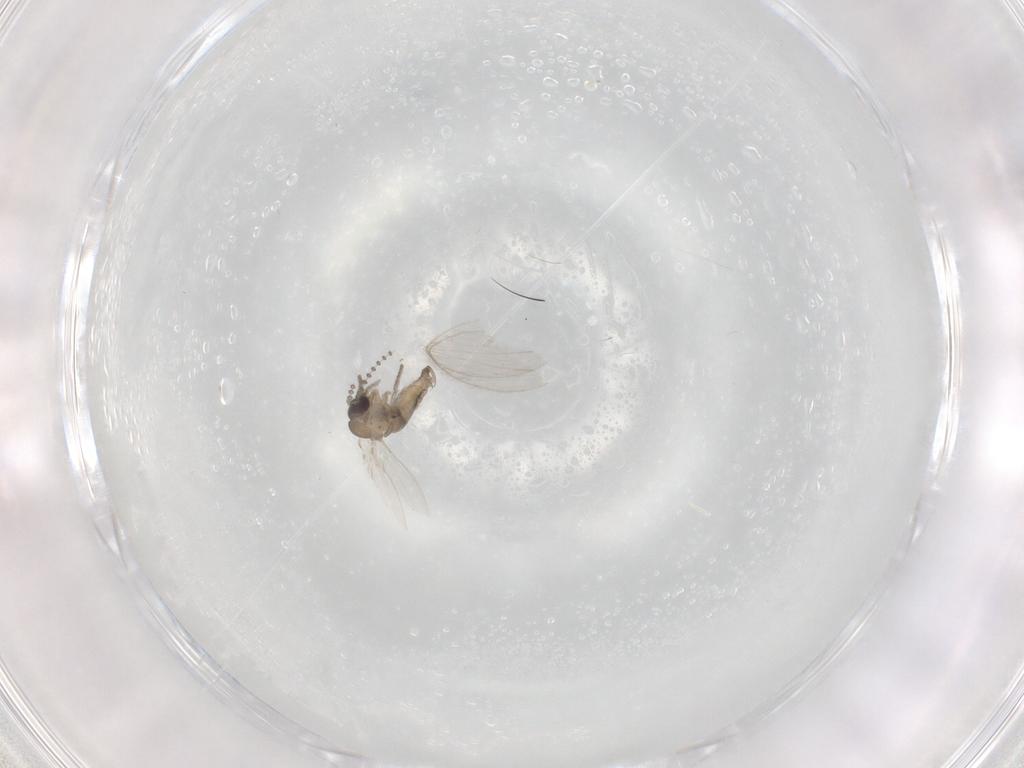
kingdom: Animalia
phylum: Arthropoda
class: Insecta
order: Diptera
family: Psychodidae
